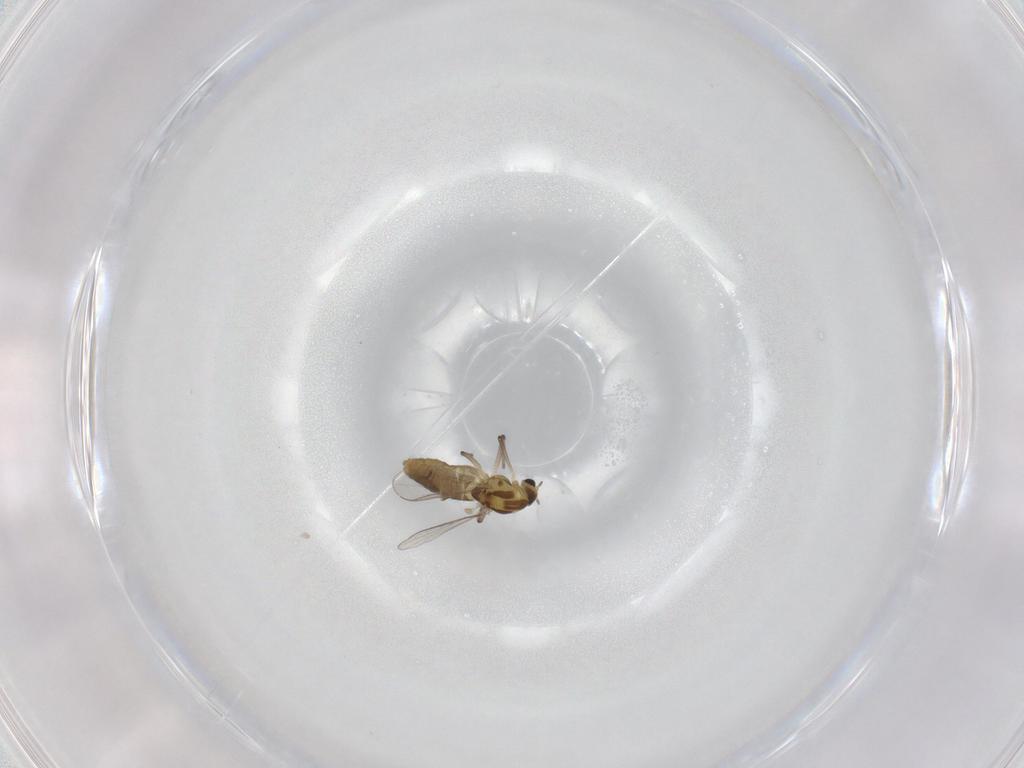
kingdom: Animalia
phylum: Arthropoda
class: Insecta
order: Diptera
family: Chironomidae
